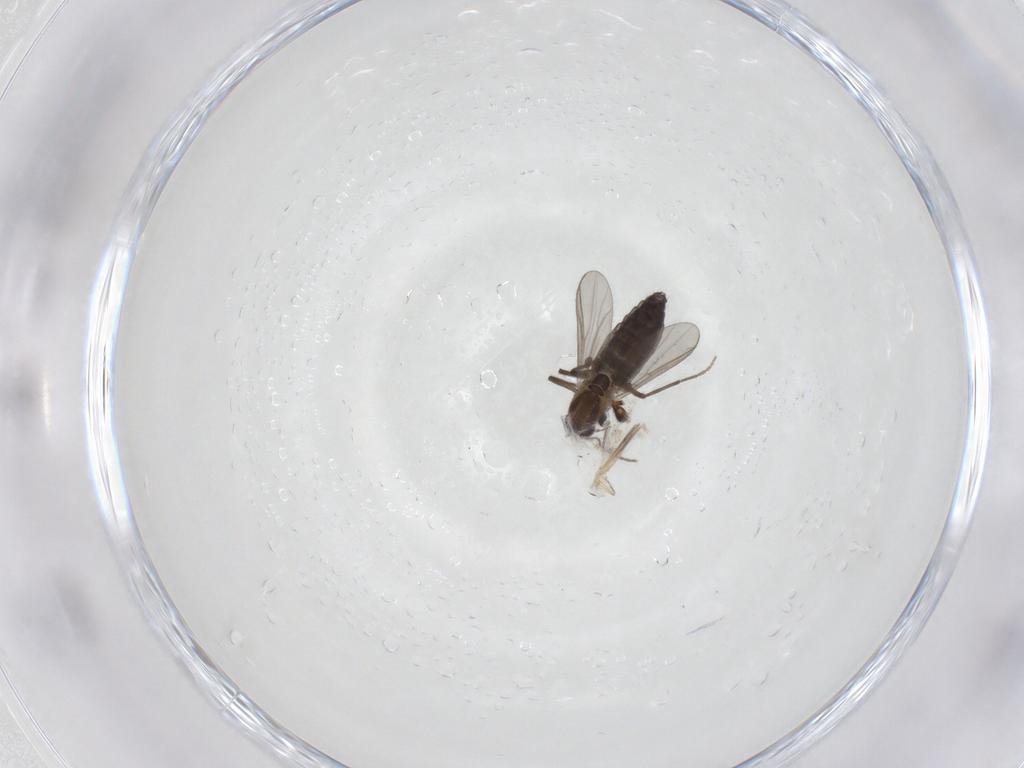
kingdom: Animalia
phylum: Arthropoda
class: Insecta
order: Diptera
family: Chironomidae
